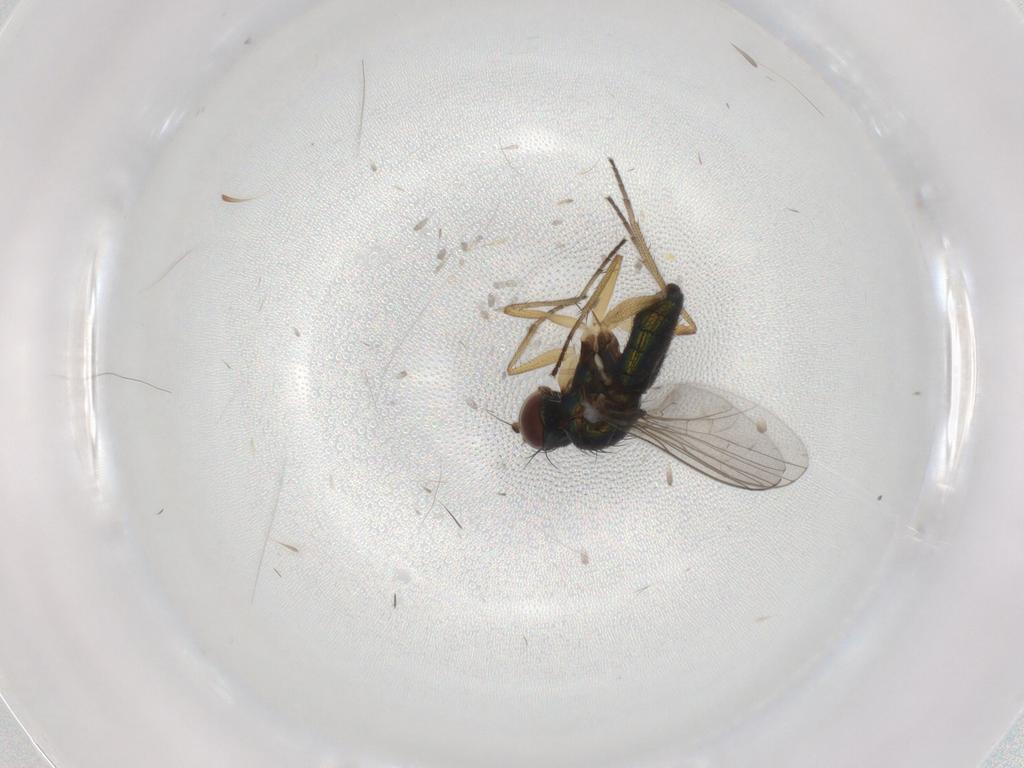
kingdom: Animalia
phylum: Arthropoda
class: Insecta
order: Diptera
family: Dolichopodidae
